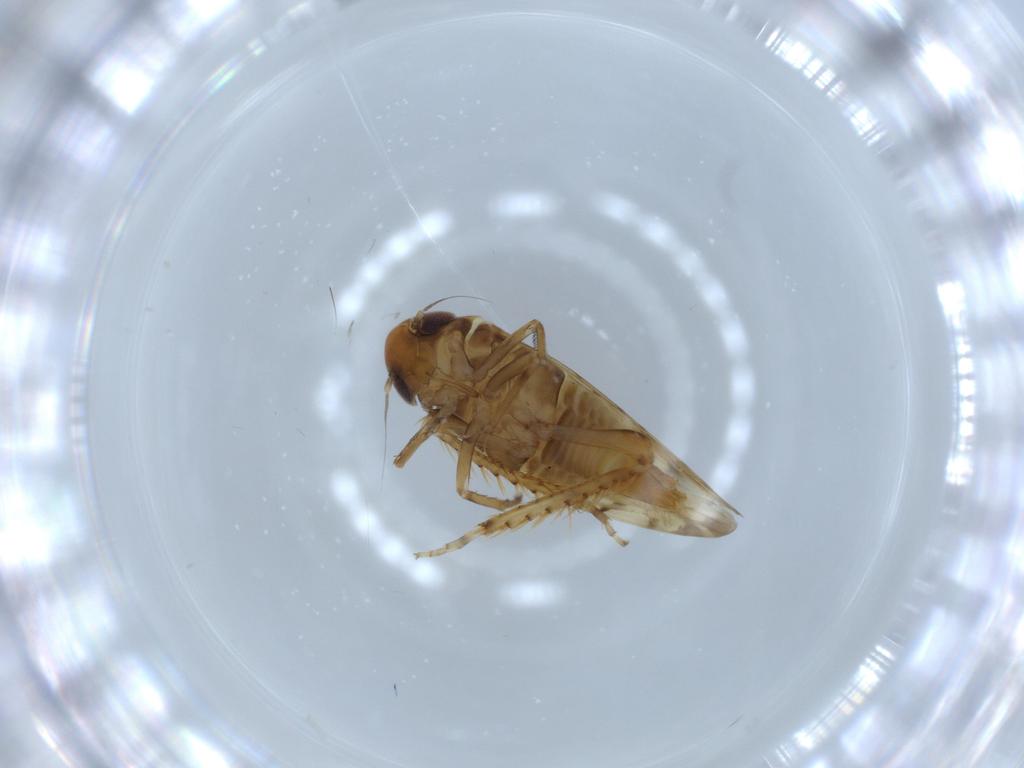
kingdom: Animalia
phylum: Arthropoda
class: Insecta
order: Hemiptera
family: Cicadellidae
